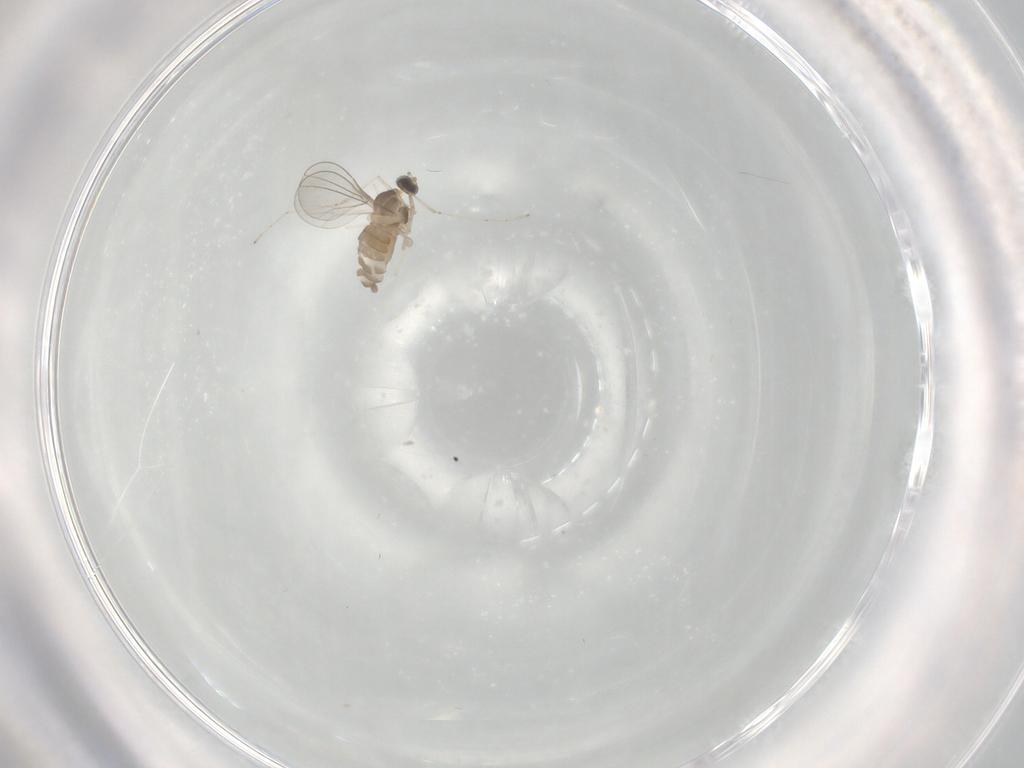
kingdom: Animalia
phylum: Arthropoda
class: Insecta
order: Diptera
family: Cecidomyiidae
